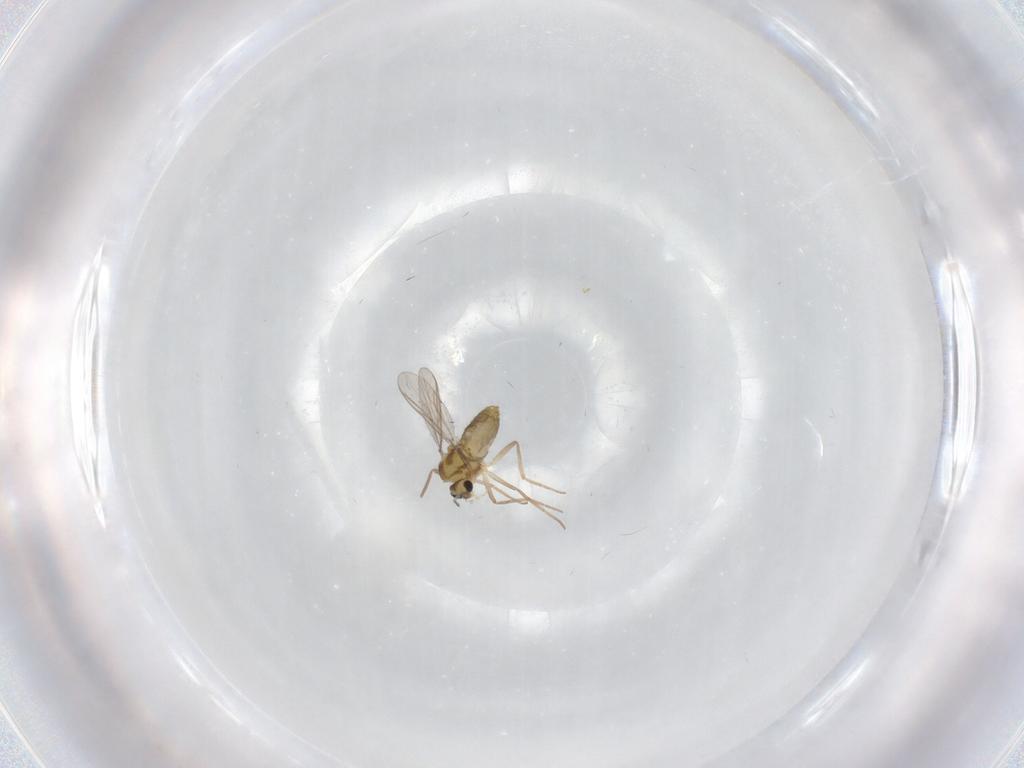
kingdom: Animalia
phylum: Arthropoda
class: Insecta
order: Diptera
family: Chironomidae
